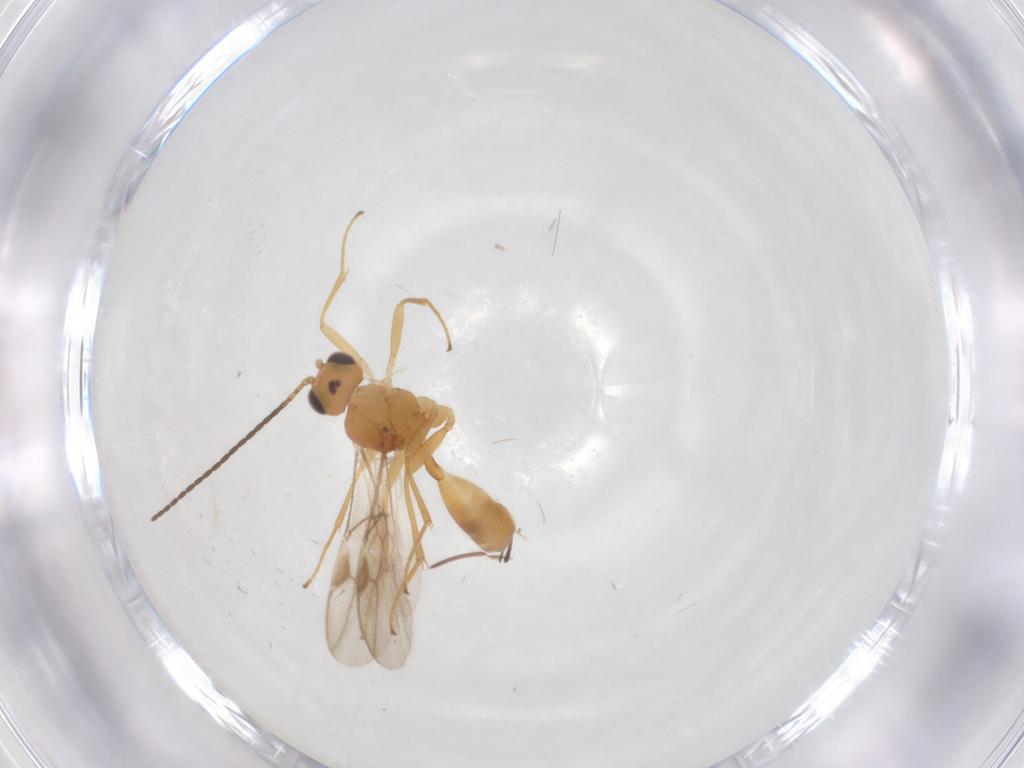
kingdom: Animalia
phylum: Arthropoda
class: Insecta
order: Hymenoptera
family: Braconidae
